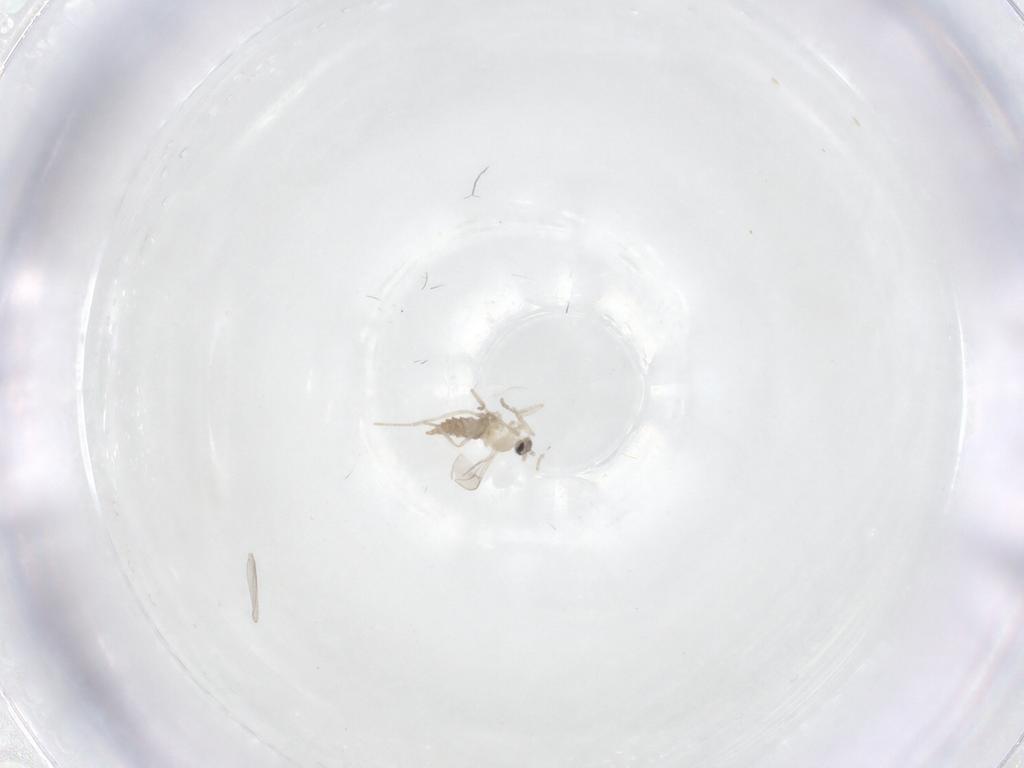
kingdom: Animalia
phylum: Arthropoda
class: Insecta
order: Diptera
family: Cecidomyiidae
